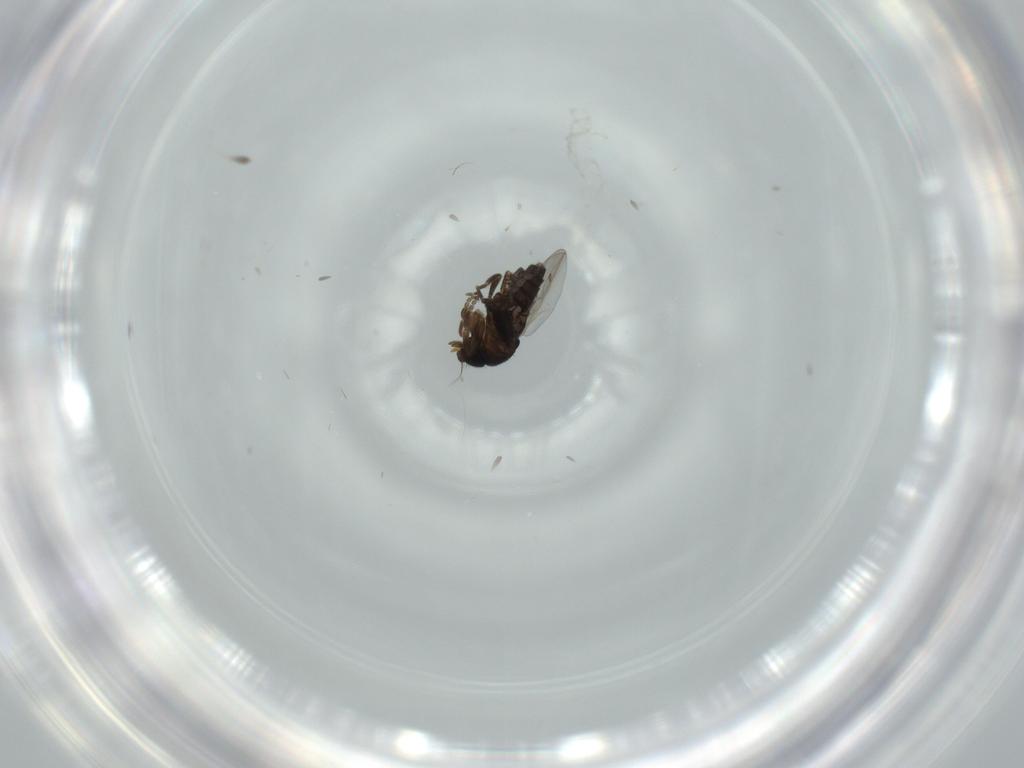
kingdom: Animalia
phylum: Arthropoda
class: Insecta
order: Diptera
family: Phoridae
